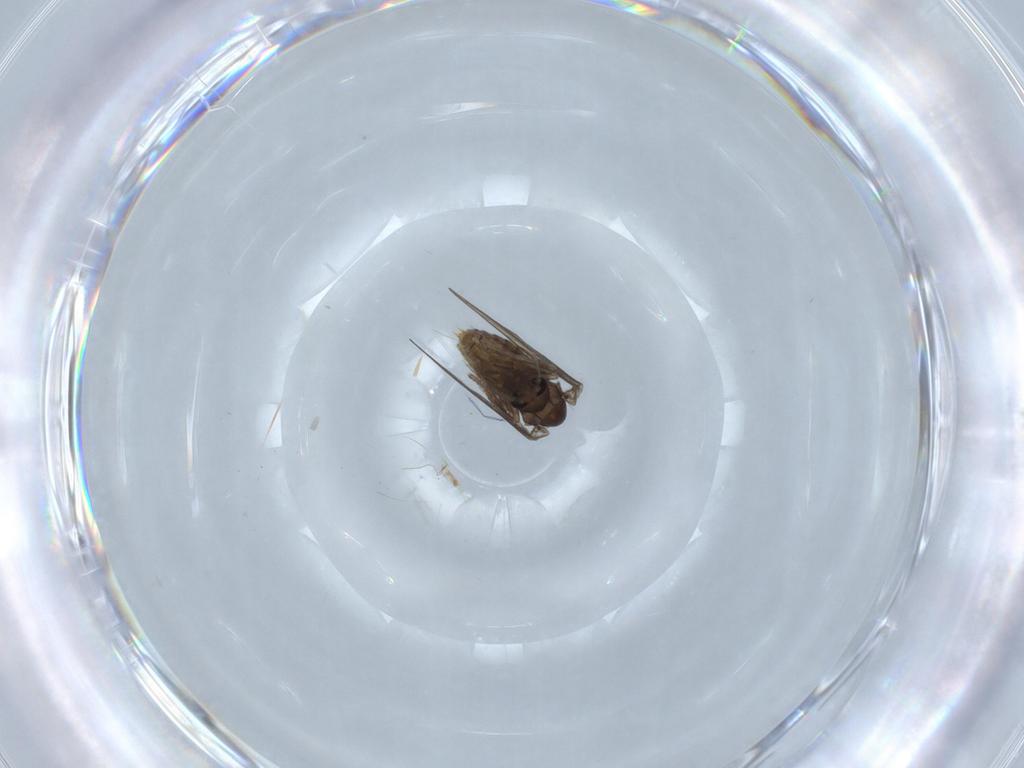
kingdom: Animalia
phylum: Arthropoda
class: Insecta
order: Diptera
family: Psychodidae
